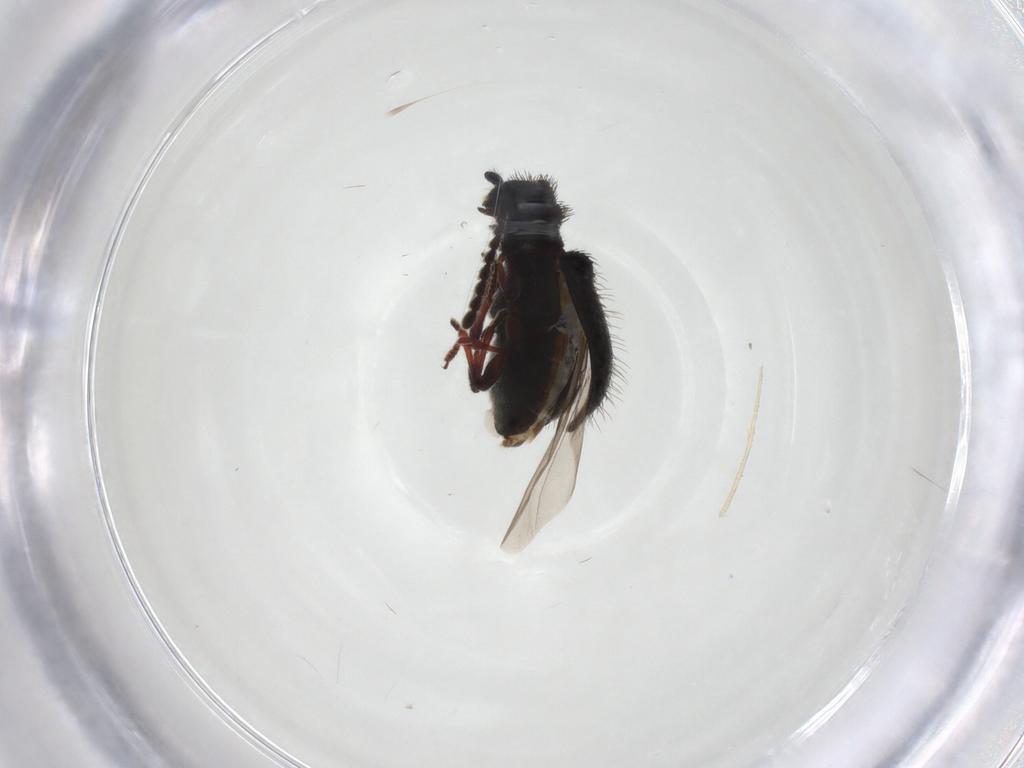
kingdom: Animalia
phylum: Arthropoda
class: Insecta
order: Coleoptera
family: Ptinidae
